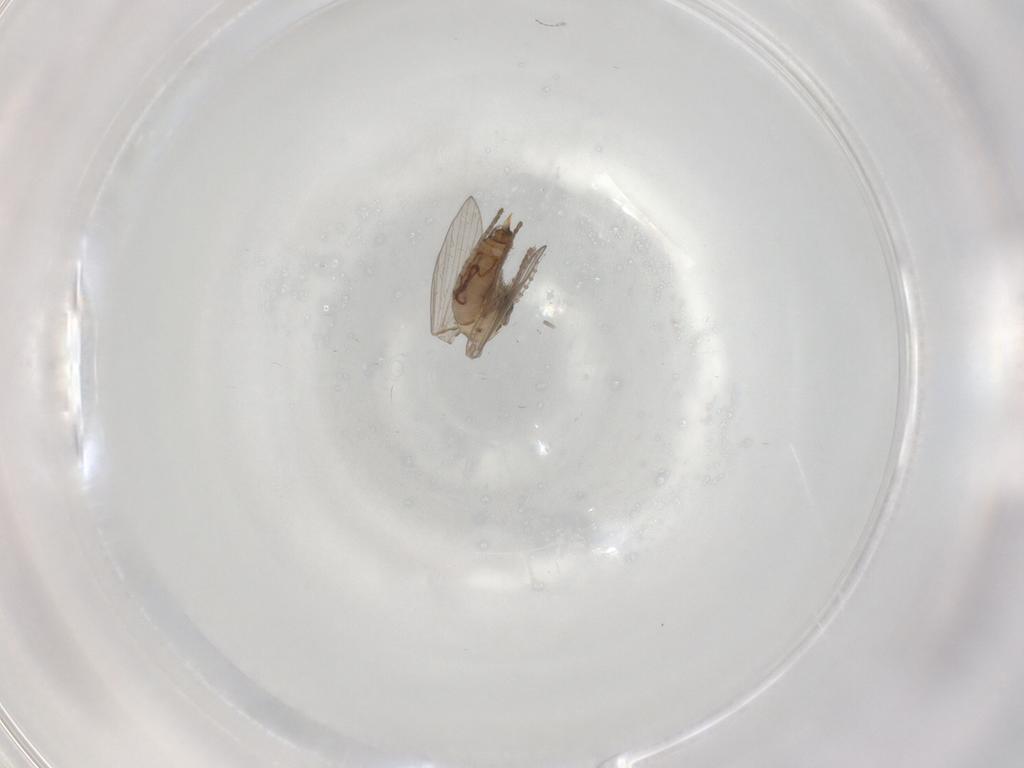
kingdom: Animalia
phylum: Arthropoda
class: Insecta
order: Diptera
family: Psychodidae
